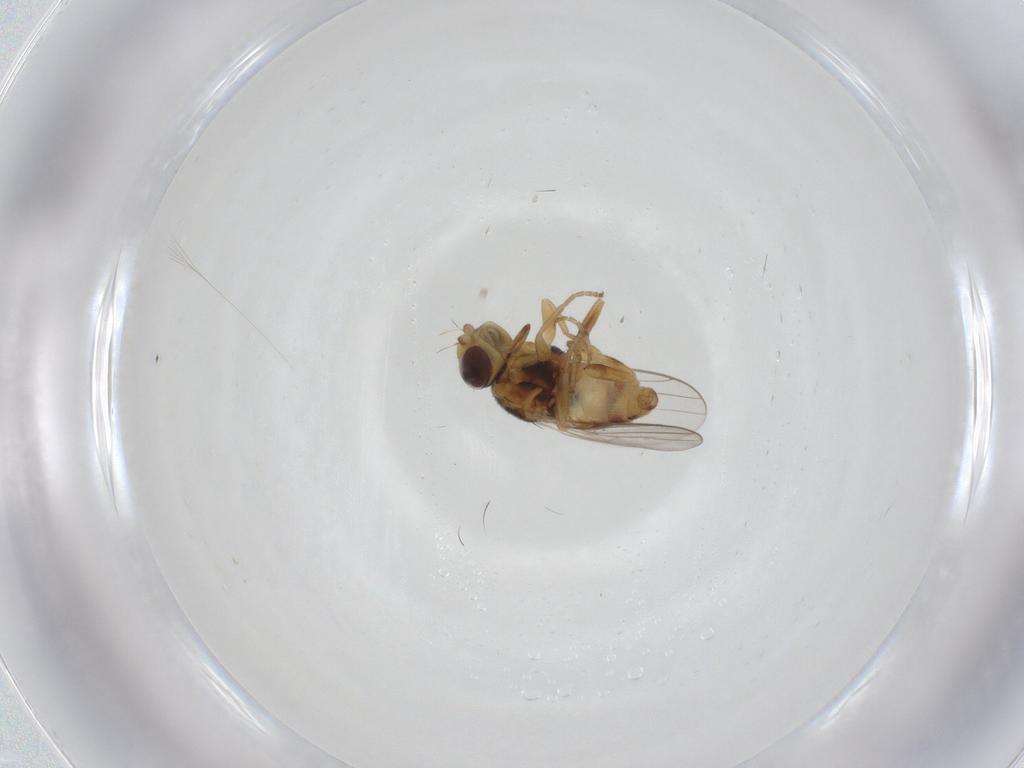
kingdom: Animalia
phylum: Arthropoda
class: Insecta
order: Diptera
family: Chloropidae
